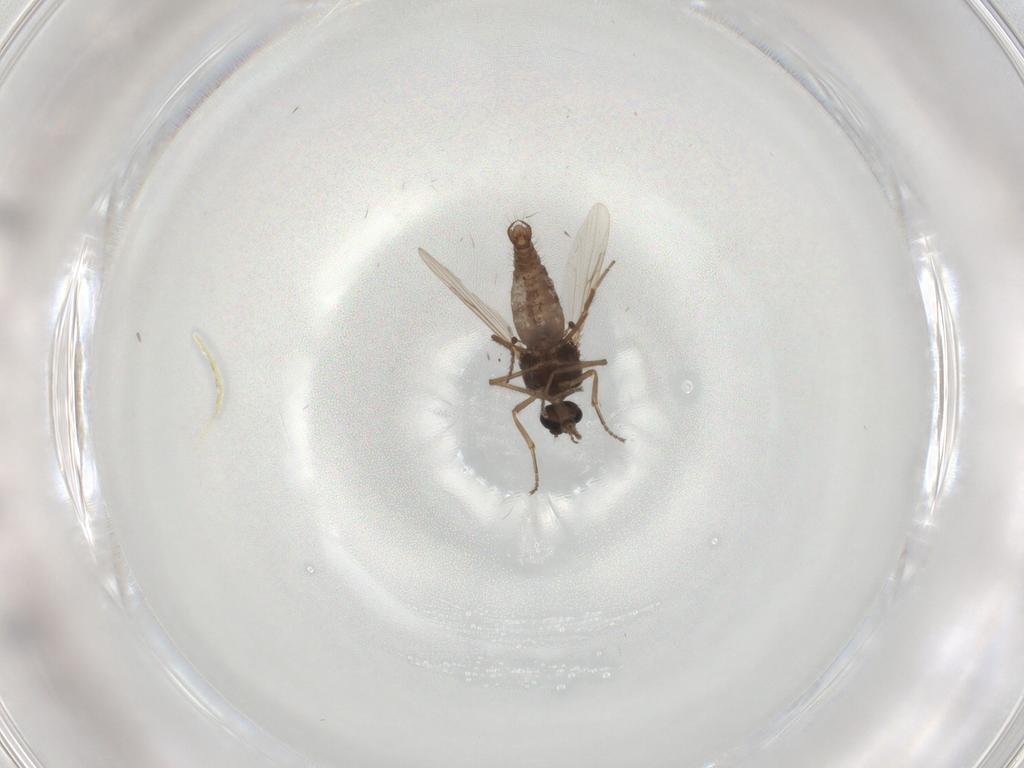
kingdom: Animalia
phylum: Arthropoda
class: Insecta
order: Diptera
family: Ceratopogonidae
